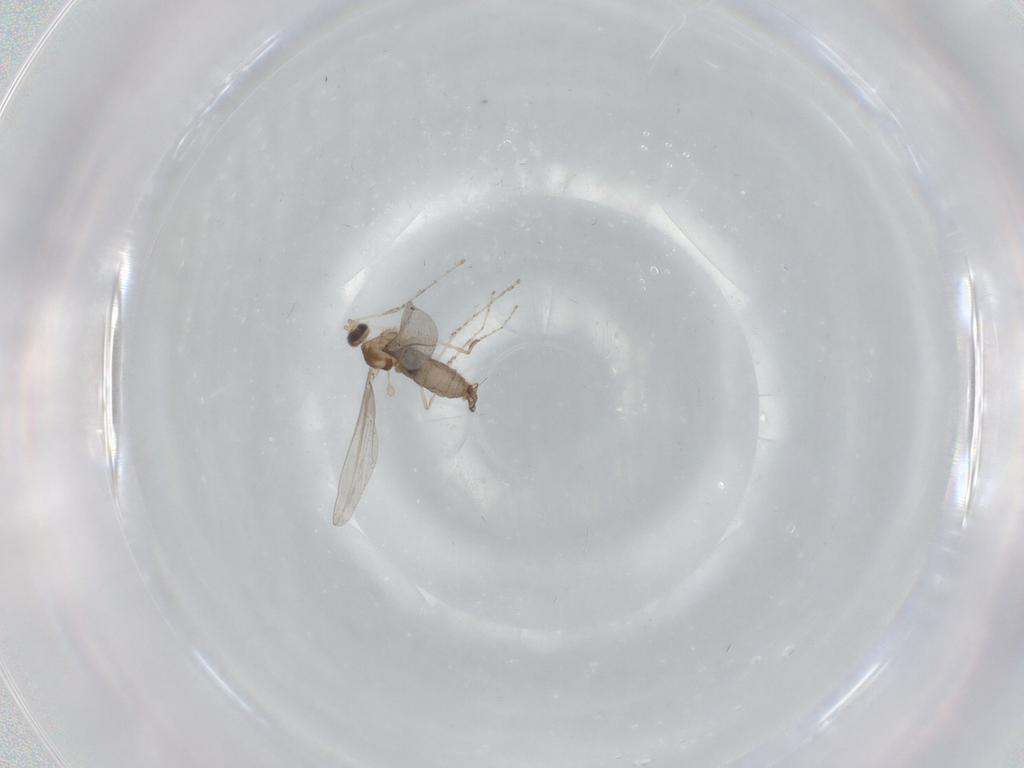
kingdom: Animalia
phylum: Arthropoda
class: Insecta
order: Diptera
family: Cecidomyiidae
